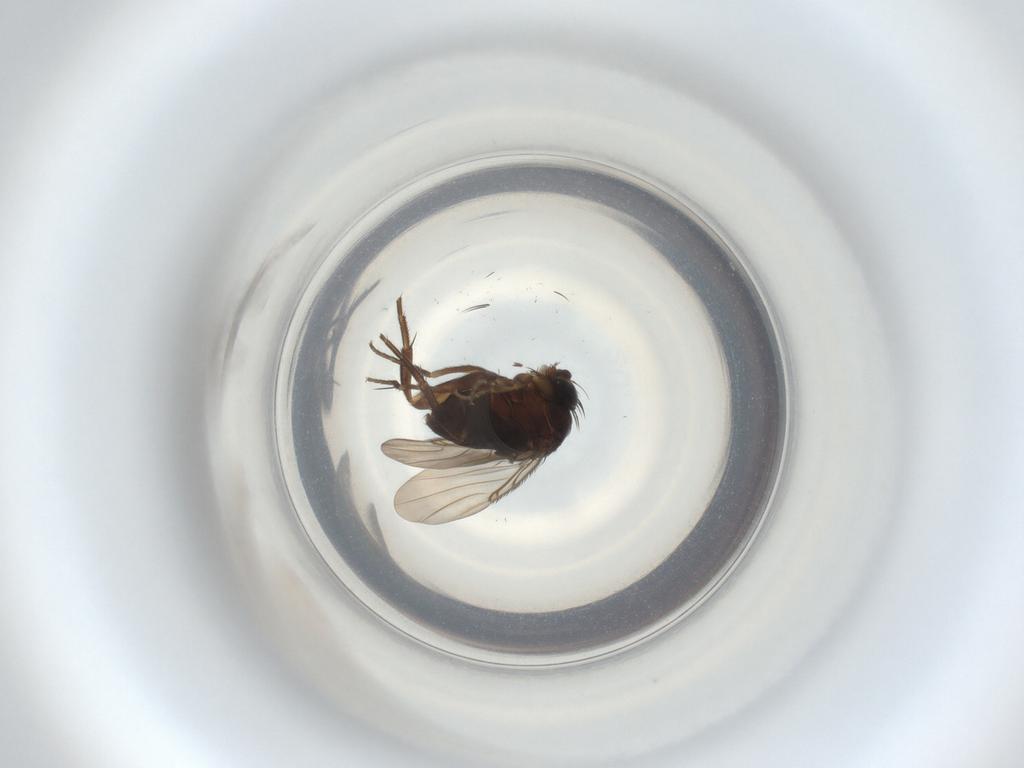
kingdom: Animalia
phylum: Arthropoda
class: Insecta
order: Diptera
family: Phoridae
